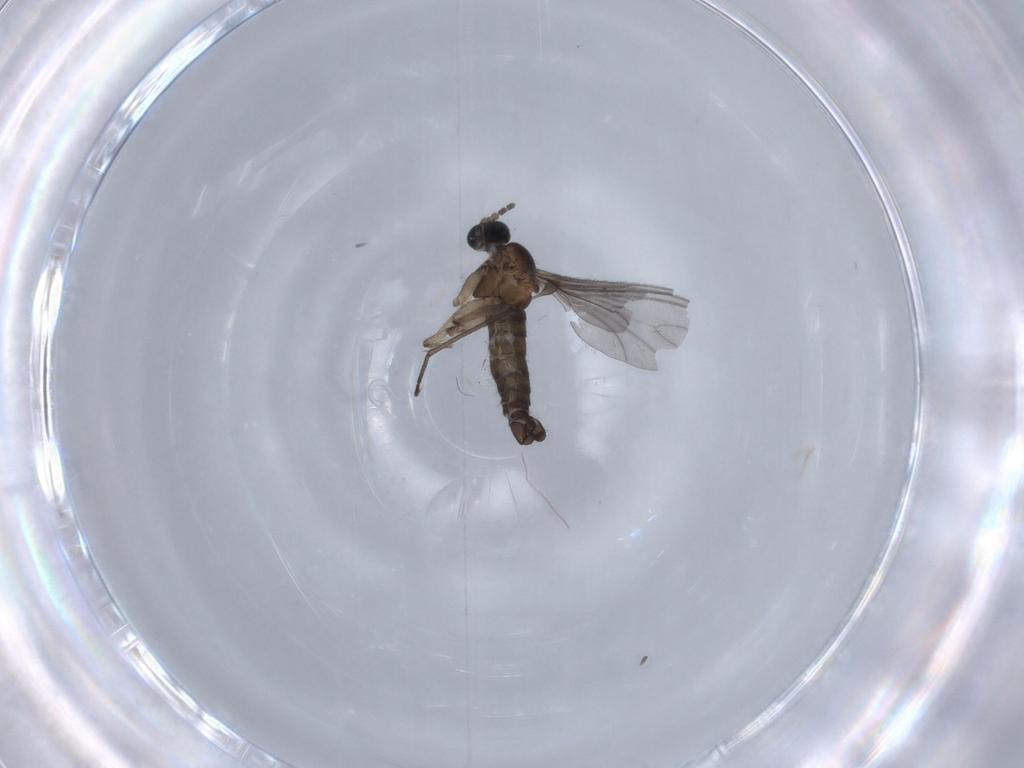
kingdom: Animalia
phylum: Arthropoda
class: Insecta
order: Diptera
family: Sciaridae
